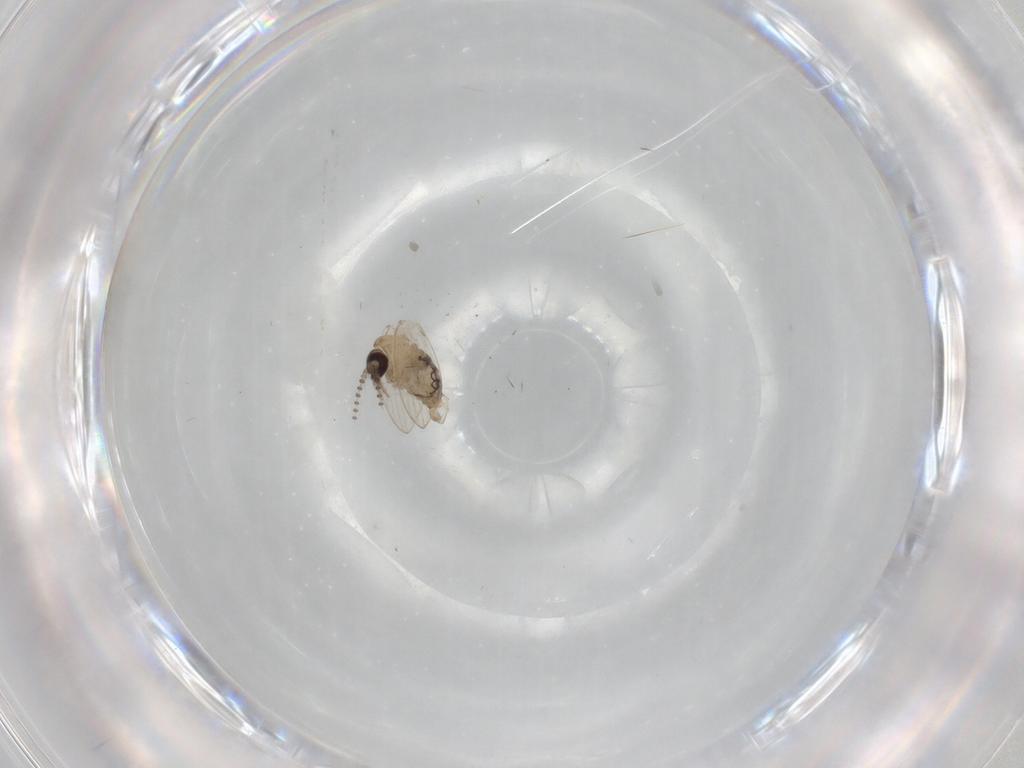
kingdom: Animalia
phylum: Arthropoda
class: Insecta
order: Diptera
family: Psychodidae
